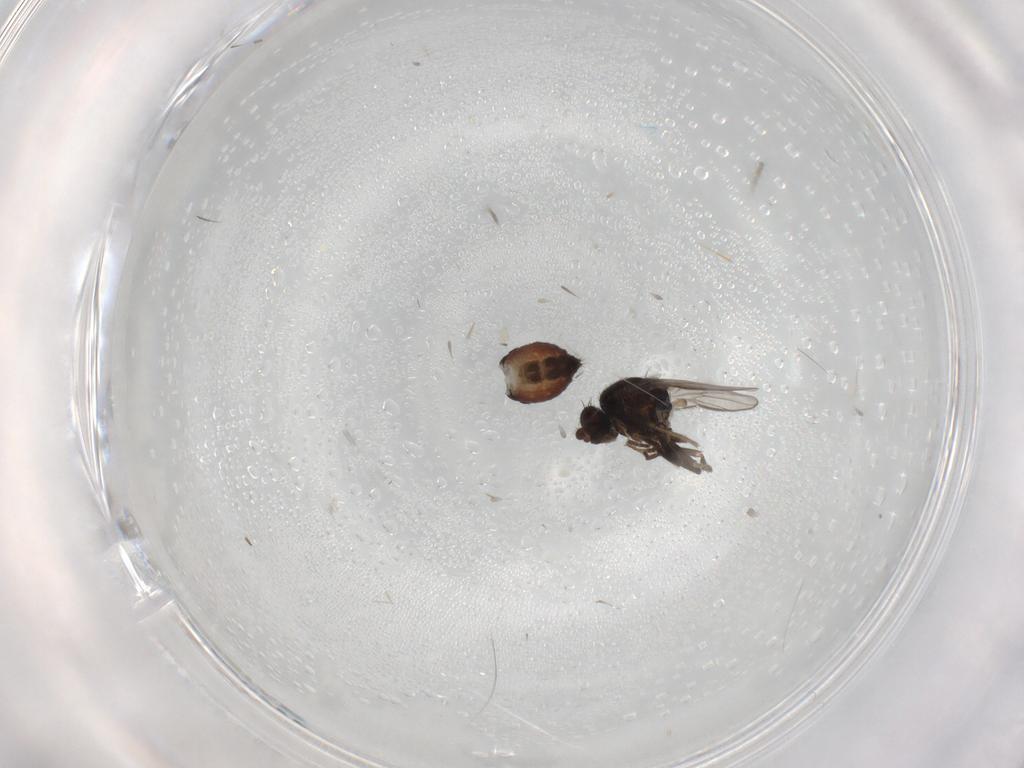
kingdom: Animalia
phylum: Arthropoda
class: Insecta
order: Diptera
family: Sphaeroceridae
